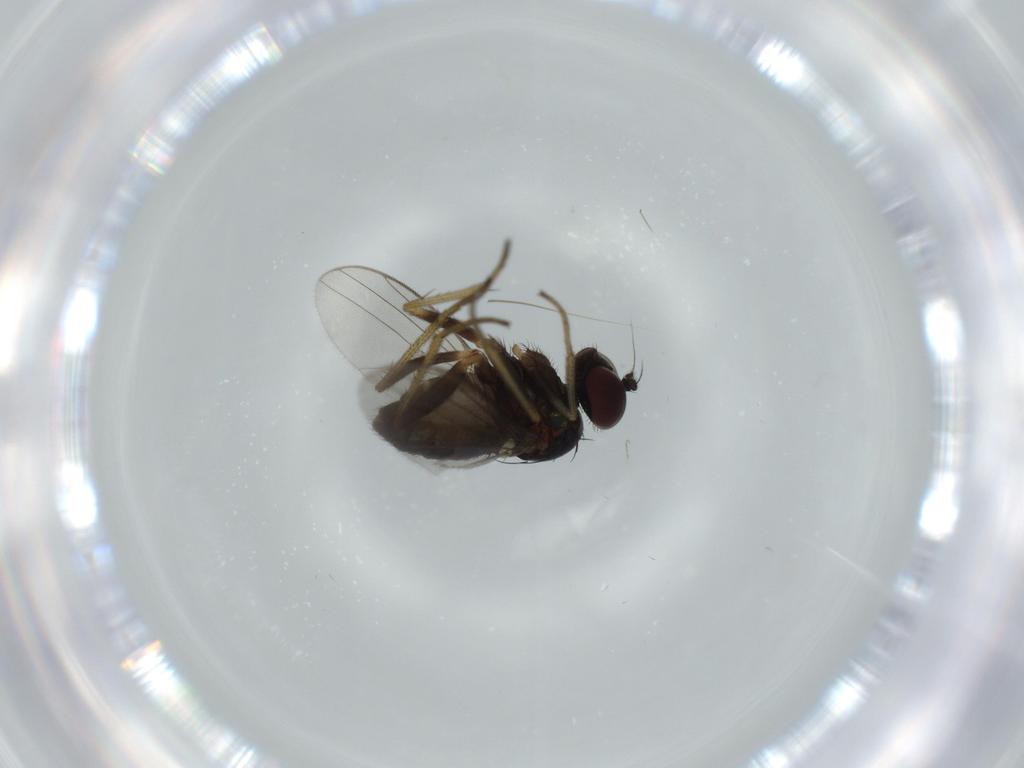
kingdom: Animalia
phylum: Arthropoda
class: Insecta
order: Diptera
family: Dolichopodidae
